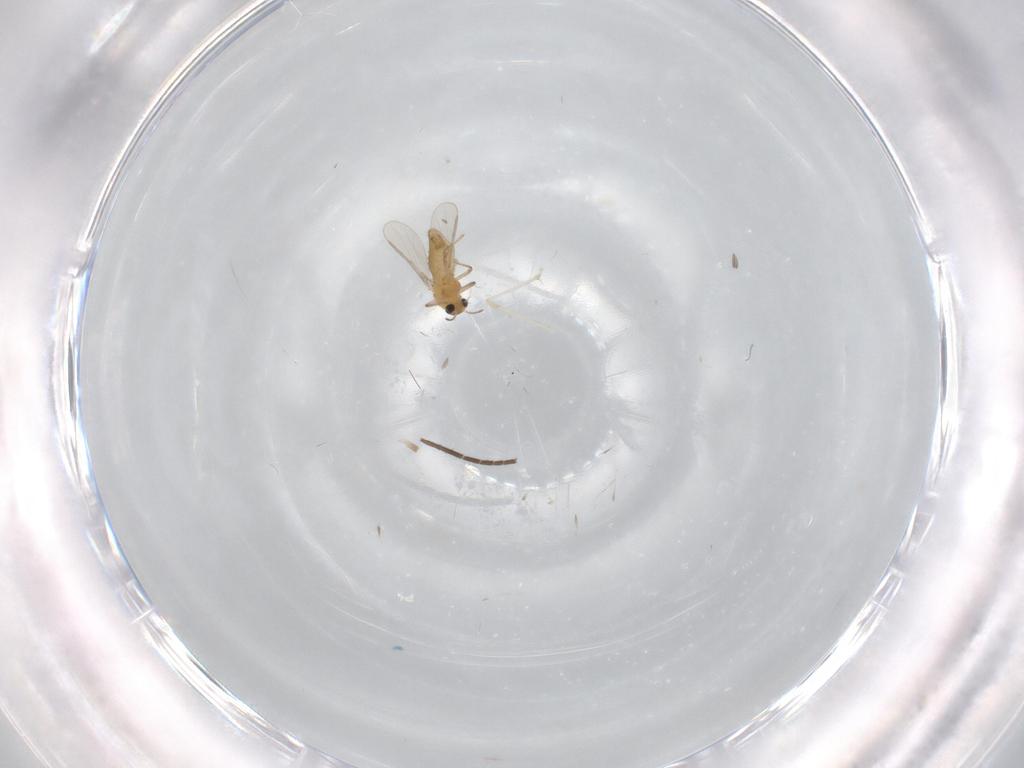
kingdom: Animalia
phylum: Arthropoda
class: Insecta
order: Diptera
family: Cecidomyiidae
